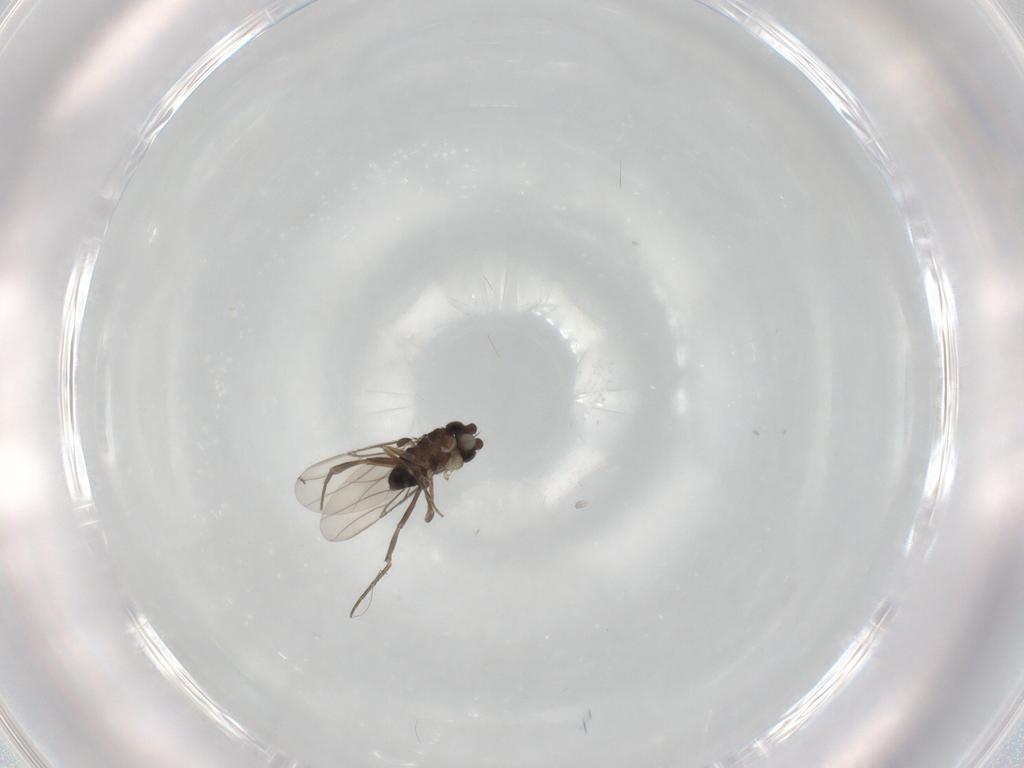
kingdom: Animalia
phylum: Arthropoda
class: Insecta
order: Diptera
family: Phoridae
